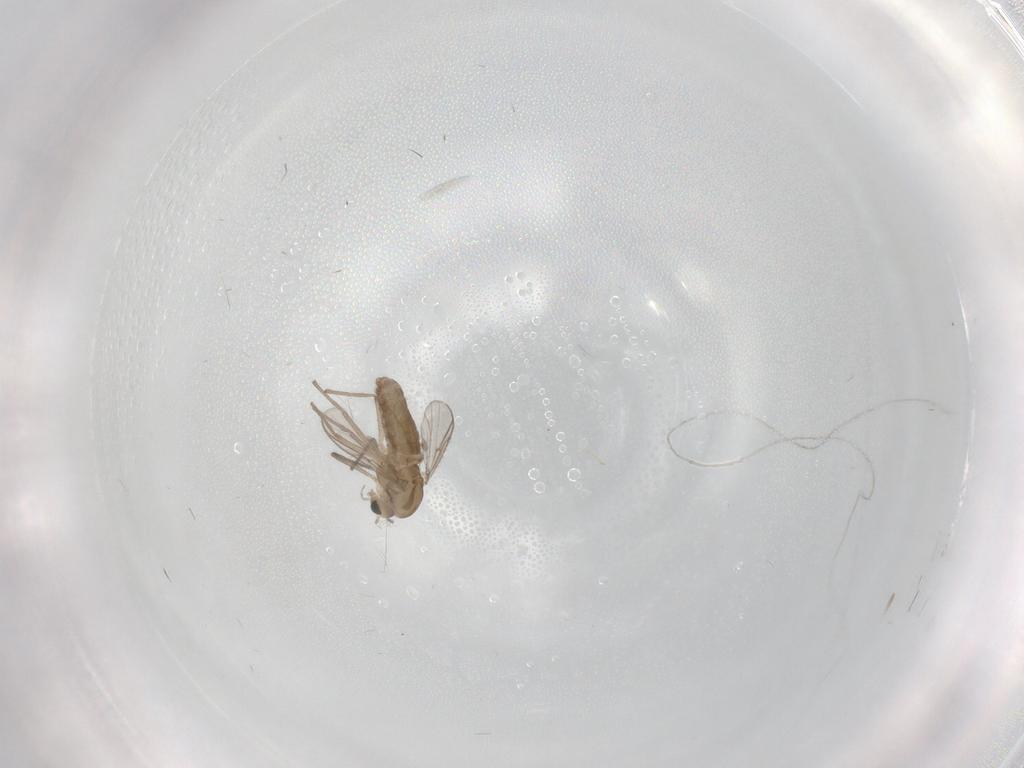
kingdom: Animalia
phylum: Arthropoda
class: Insecta
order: Diptera
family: Chironomidae
